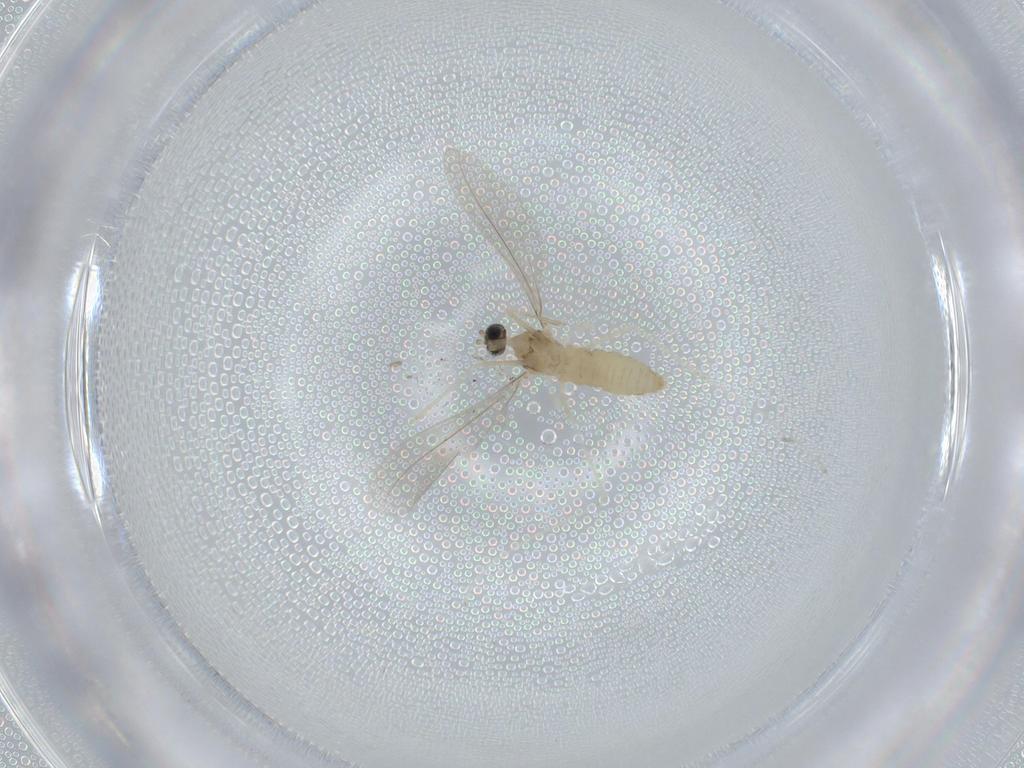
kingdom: Animalia
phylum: Arthropoda
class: Insecta
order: Diptera
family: Cecidomyiidae
